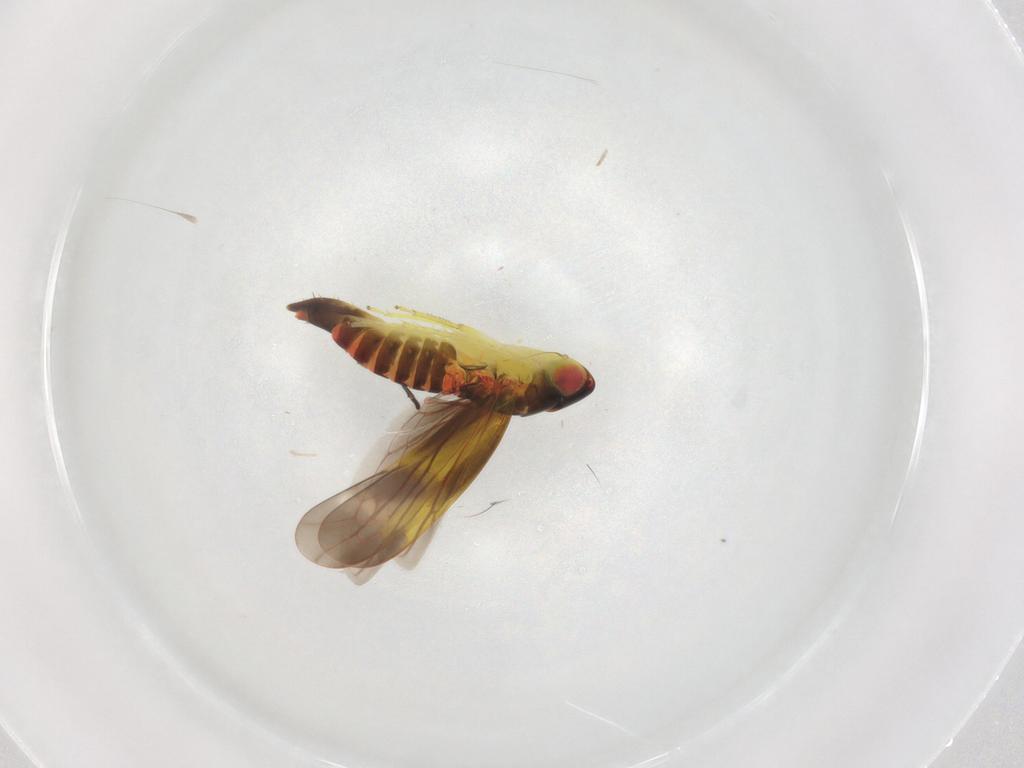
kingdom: Animalia
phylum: Arthropoda
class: Insecta
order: Hemiptera
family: Cicadellidae
